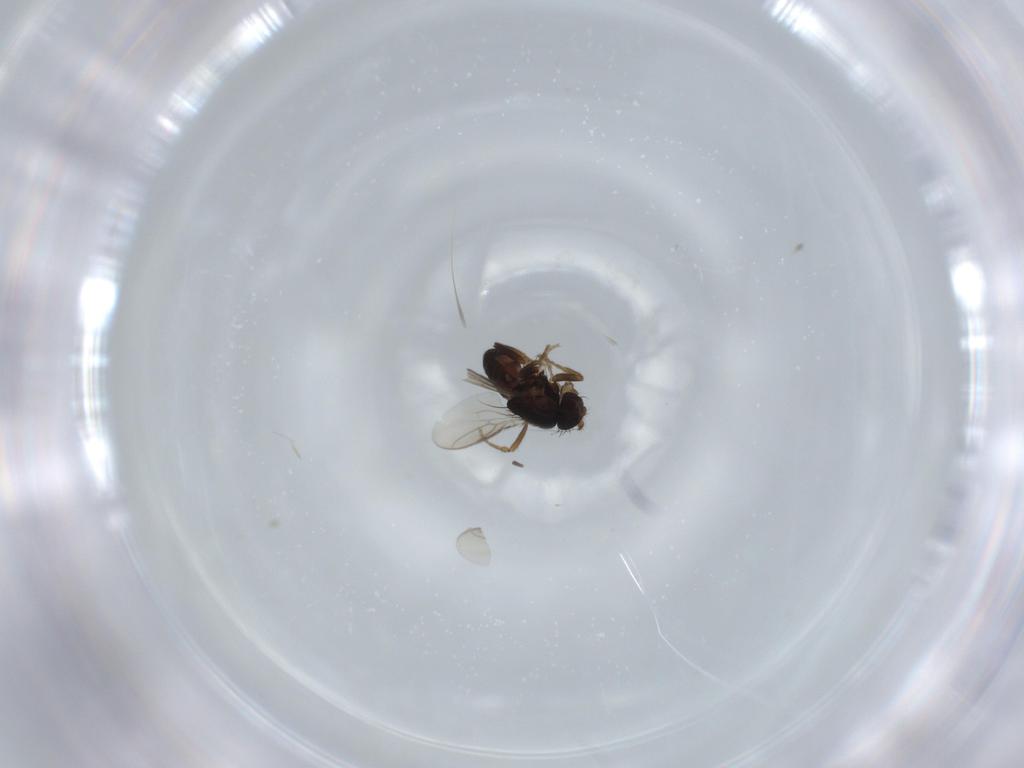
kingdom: Animalia
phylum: Arthropoda
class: Insecta
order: Diptera
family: Sphaeroceridae
